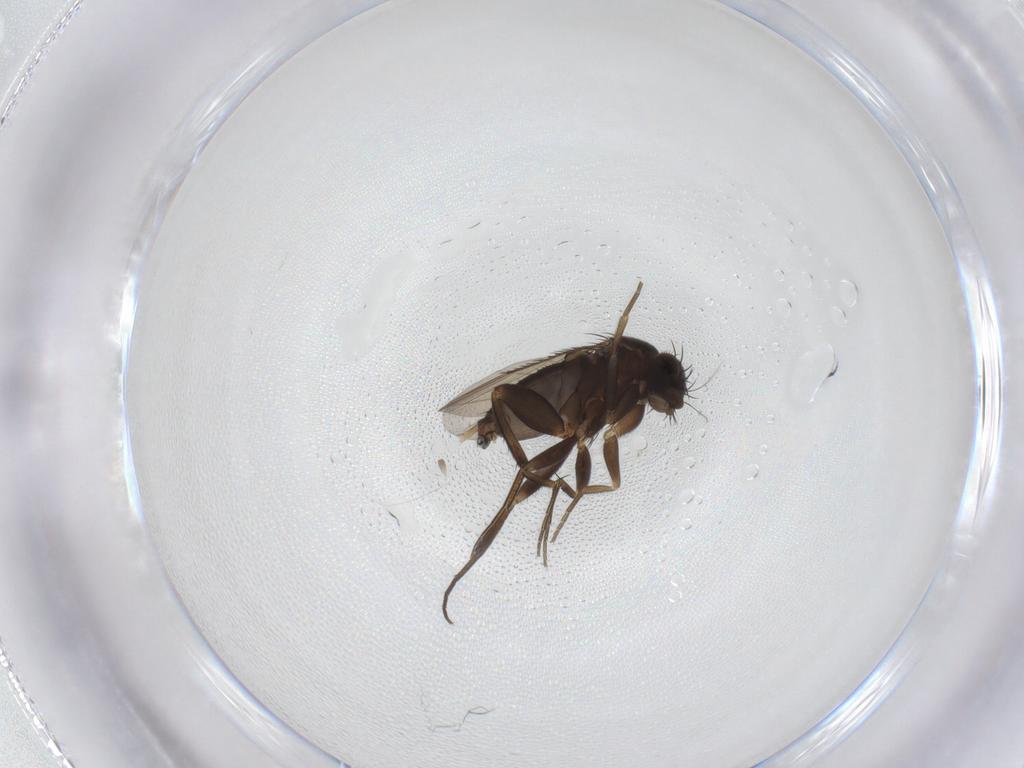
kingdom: Animalia
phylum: Arthropoda
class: Insecta
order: Diptera
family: Phoridae
